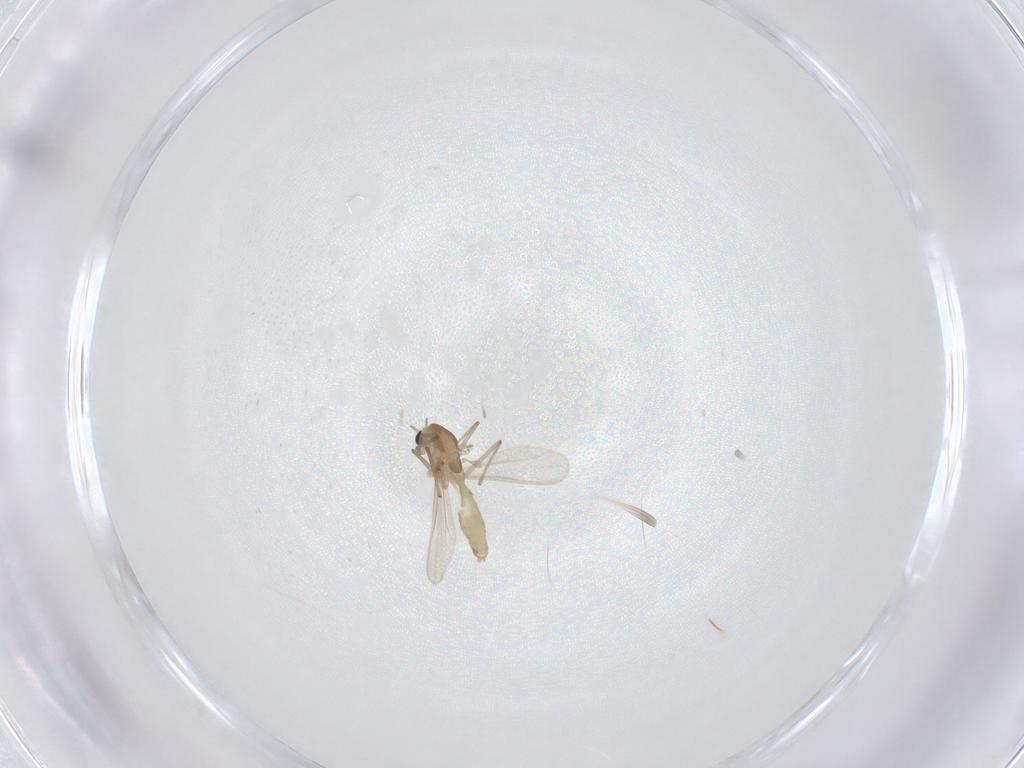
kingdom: Animalia
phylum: Arthropoda
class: Insecta
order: Diptera
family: Chironomidae
